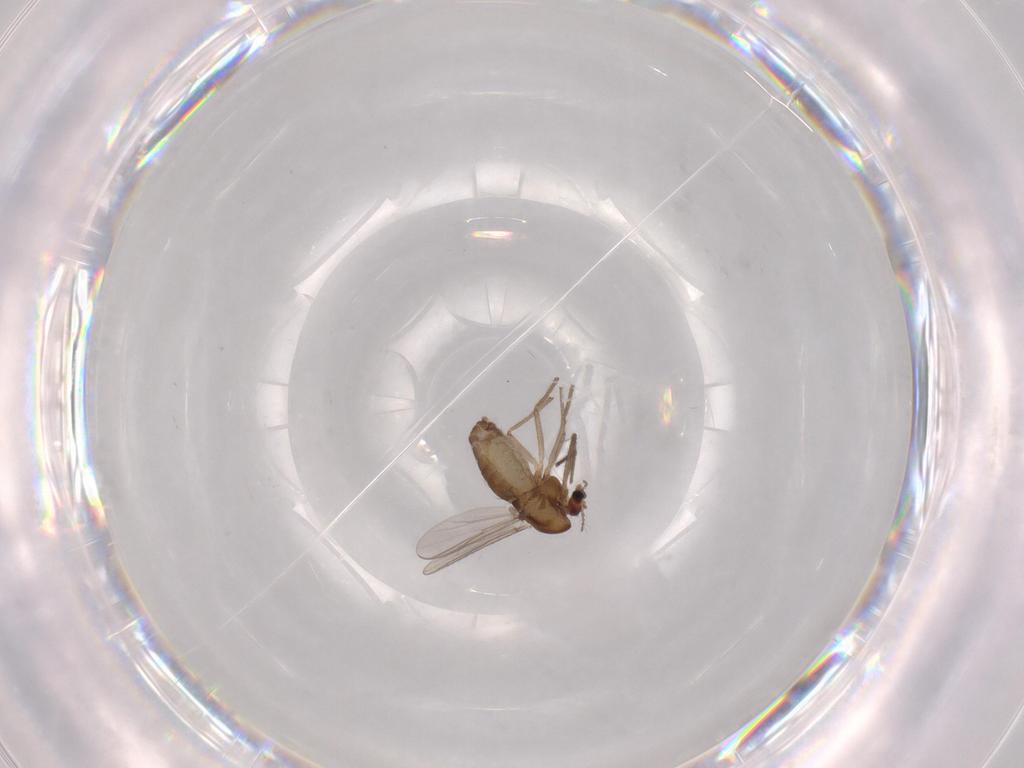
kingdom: Animalia
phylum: Arthropoda
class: Insecta
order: Diptera
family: Chironomidae
